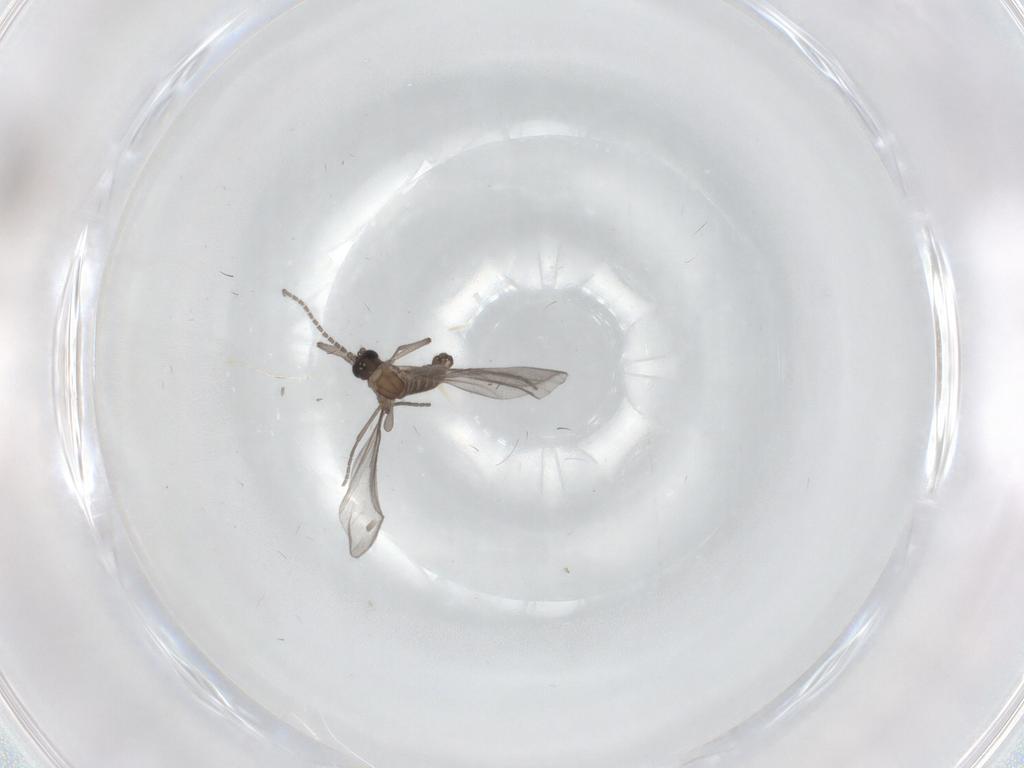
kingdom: Animalia
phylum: Arthropoda
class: Insecta
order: Diptera
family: Sciaridae
